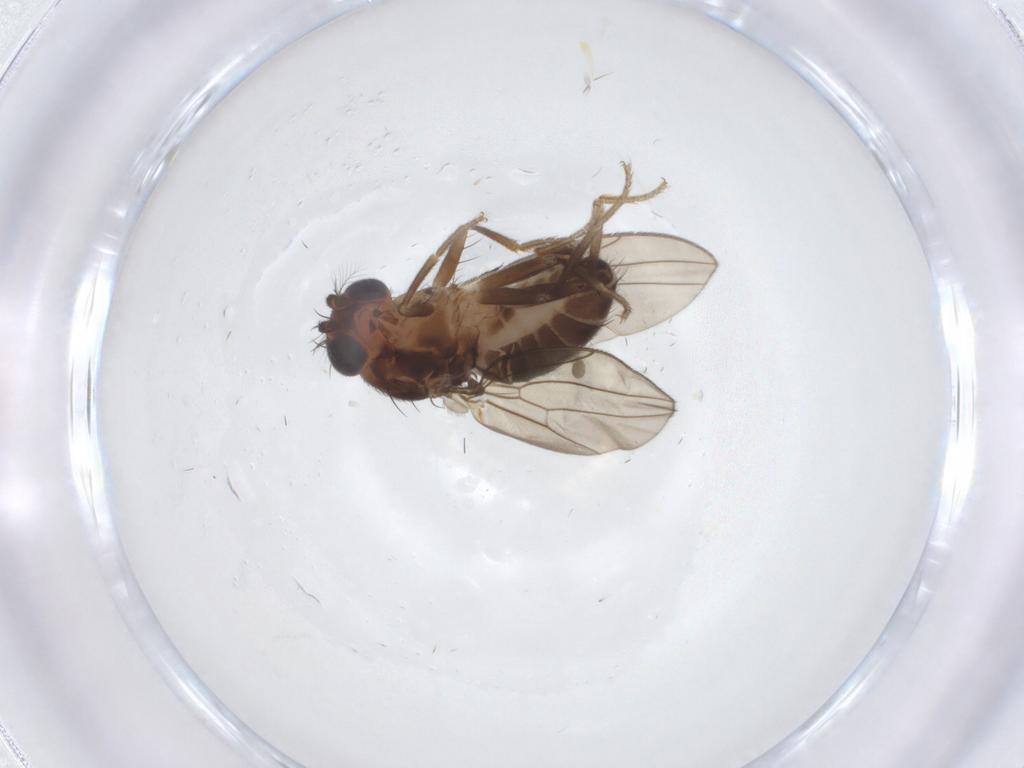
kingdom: Animalia
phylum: Arthropoda
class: Insecta
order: Diptera
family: Drosophilidae
